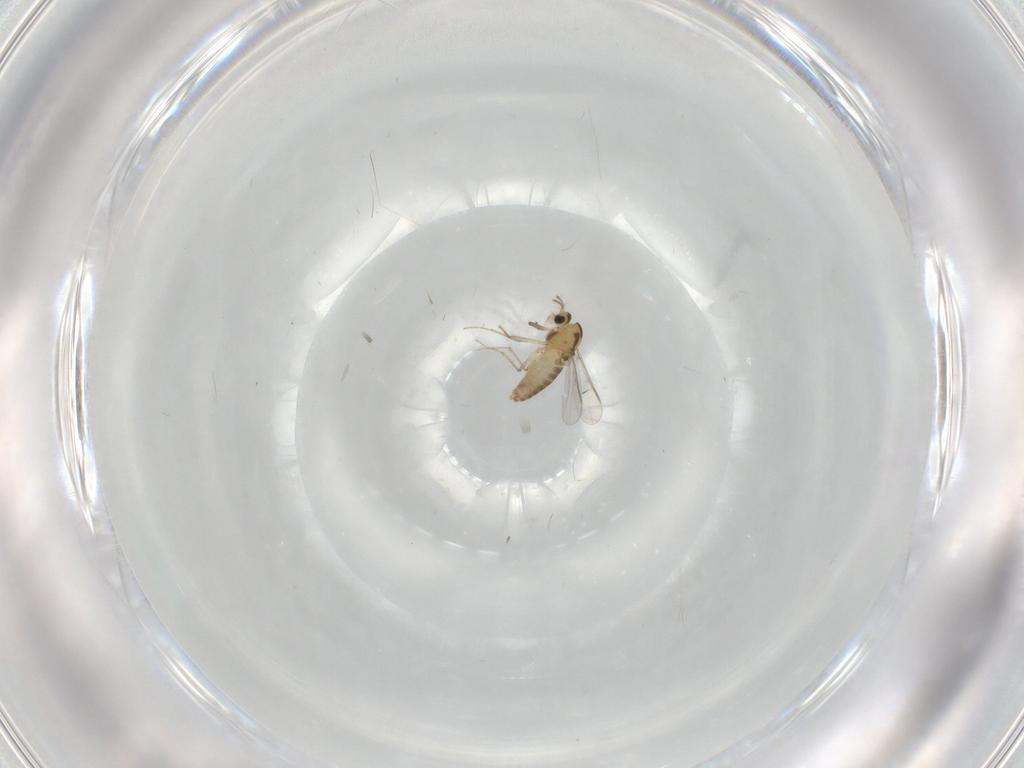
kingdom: Animalia
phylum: Arthropoda
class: Insecta
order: Diptera
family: Chironomidae
